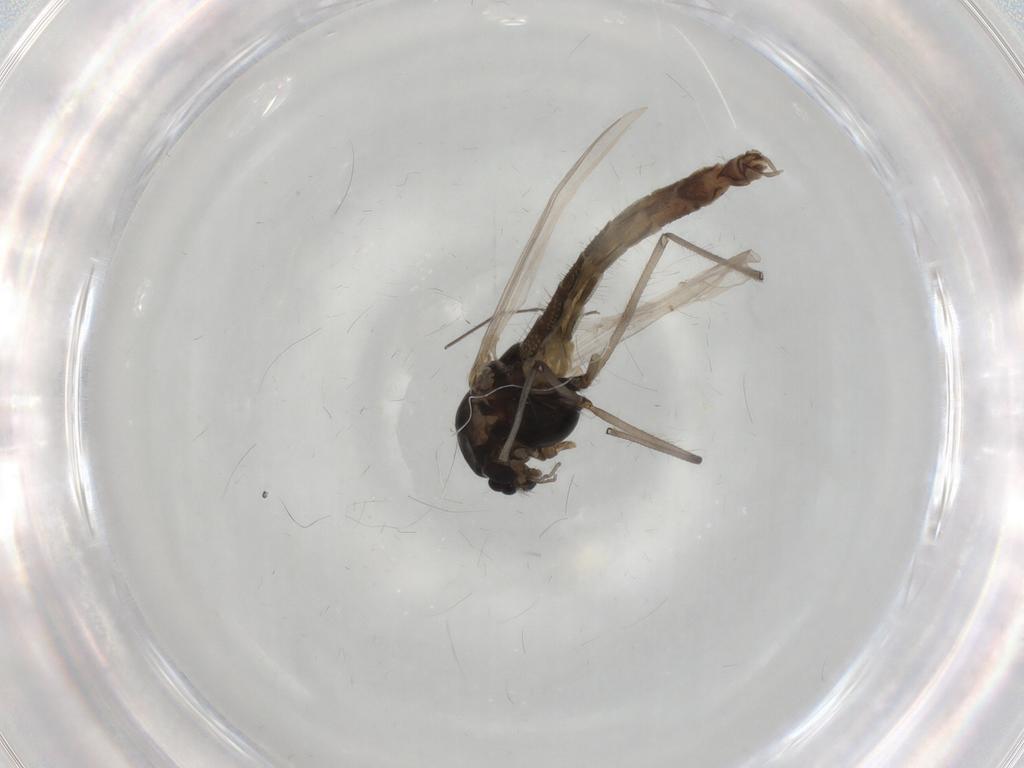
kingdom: Animalia
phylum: Arthropoda
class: Insecta
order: Diptera
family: Chironomidae
